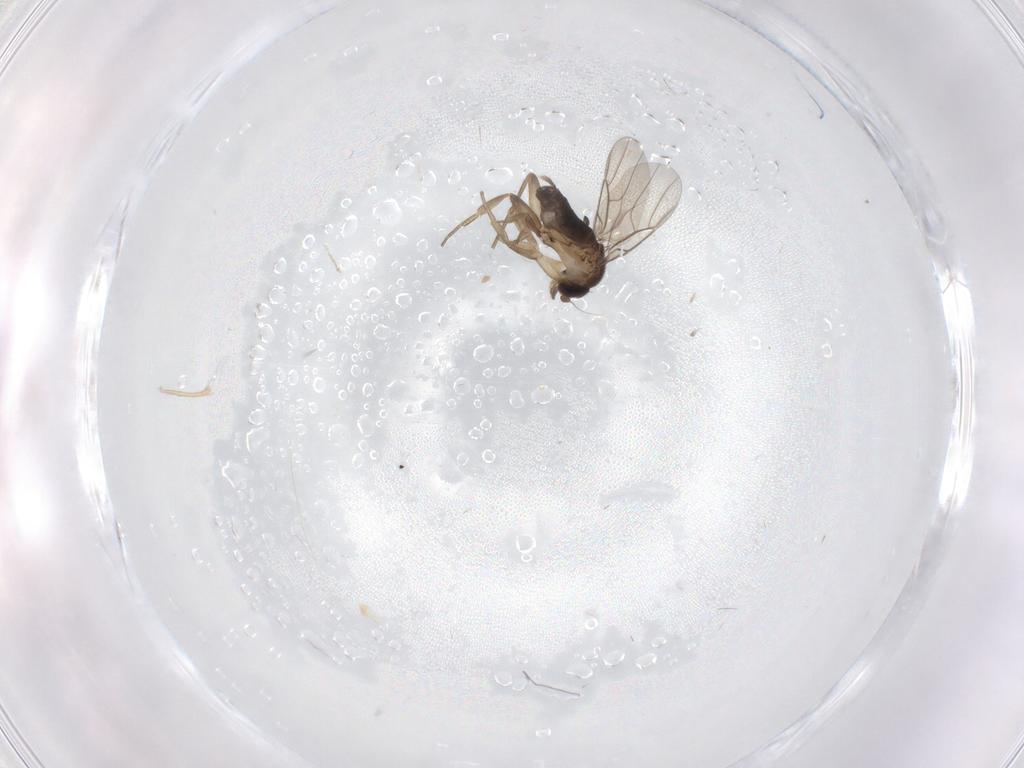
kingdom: Animalia
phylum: Arthropoda
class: Insecta
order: Diptera
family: Phoridae
